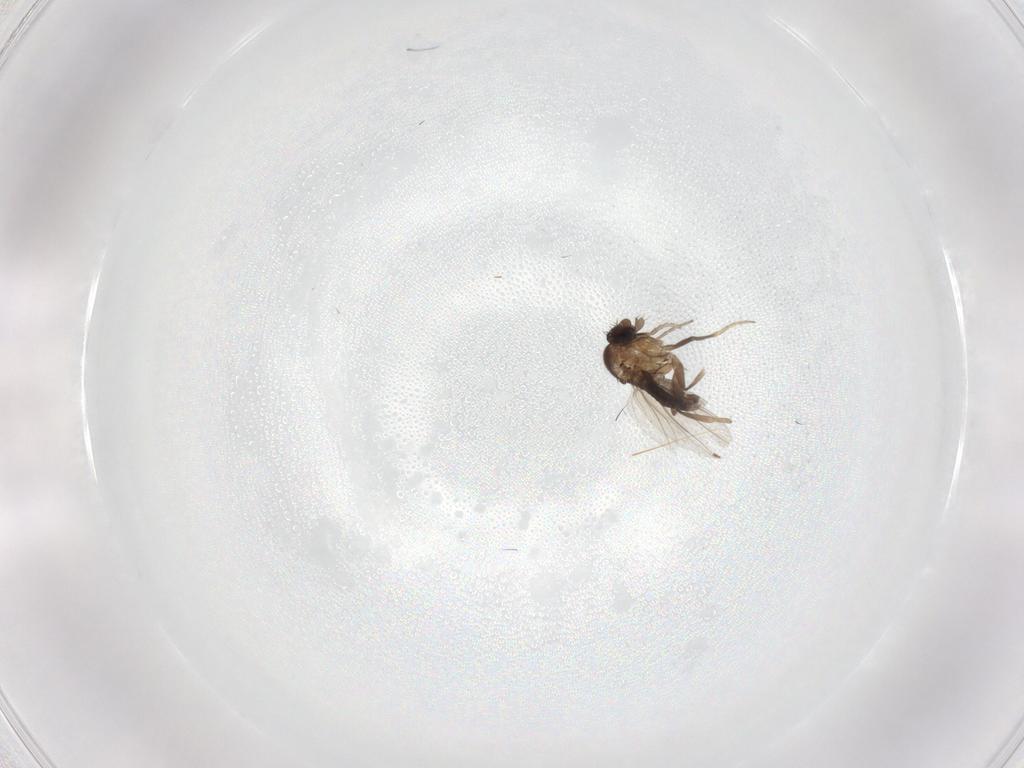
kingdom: Animalia
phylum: Arthropoda
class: Insecta
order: Diptera
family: Phoridae
